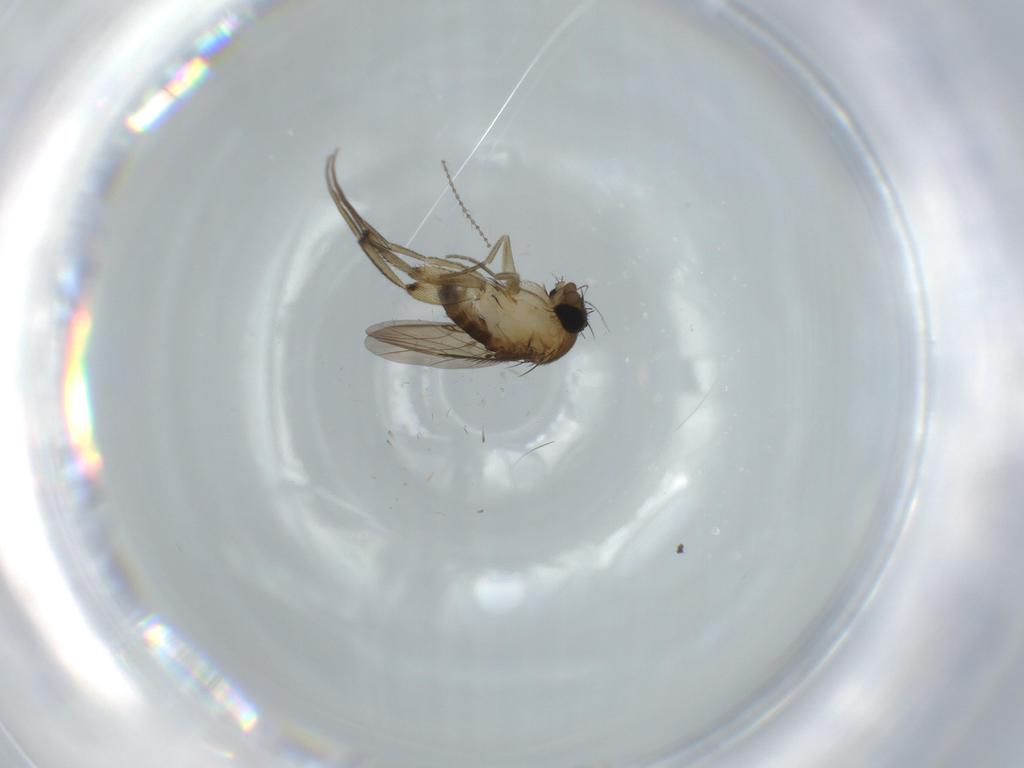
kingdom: Animalia
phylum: Arthropoda
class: Insecta
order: Diptera
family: Phoridae
